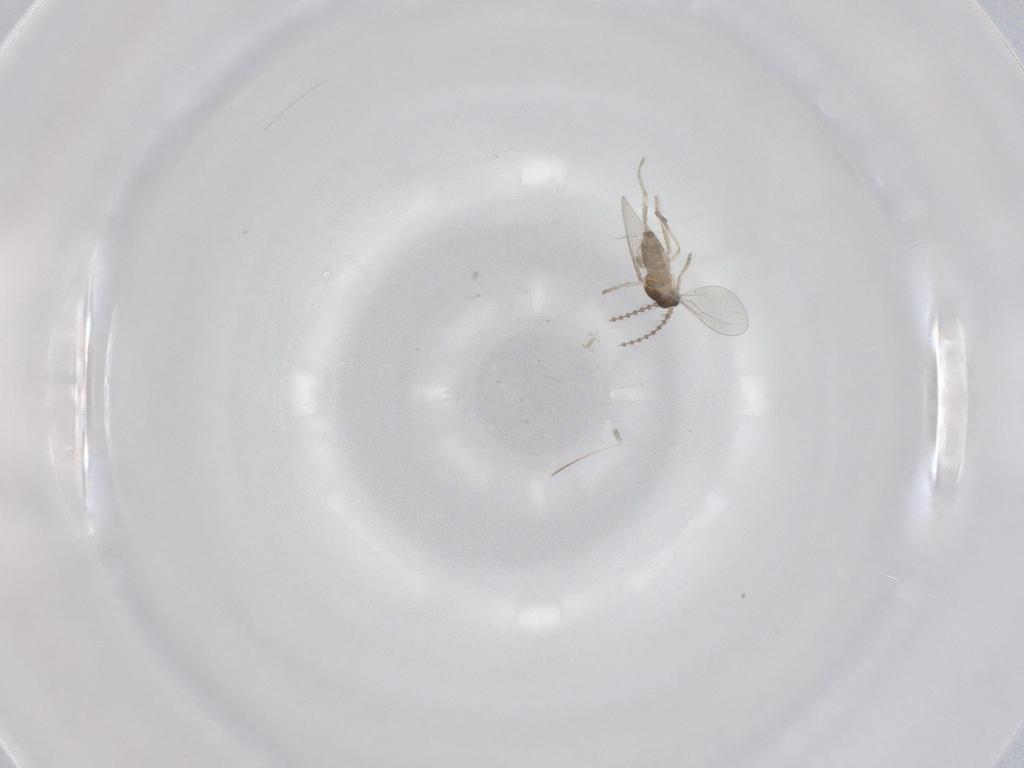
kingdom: Animalia
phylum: Arthropoda
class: Insecta
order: Diptera
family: Cecidomyiidae
